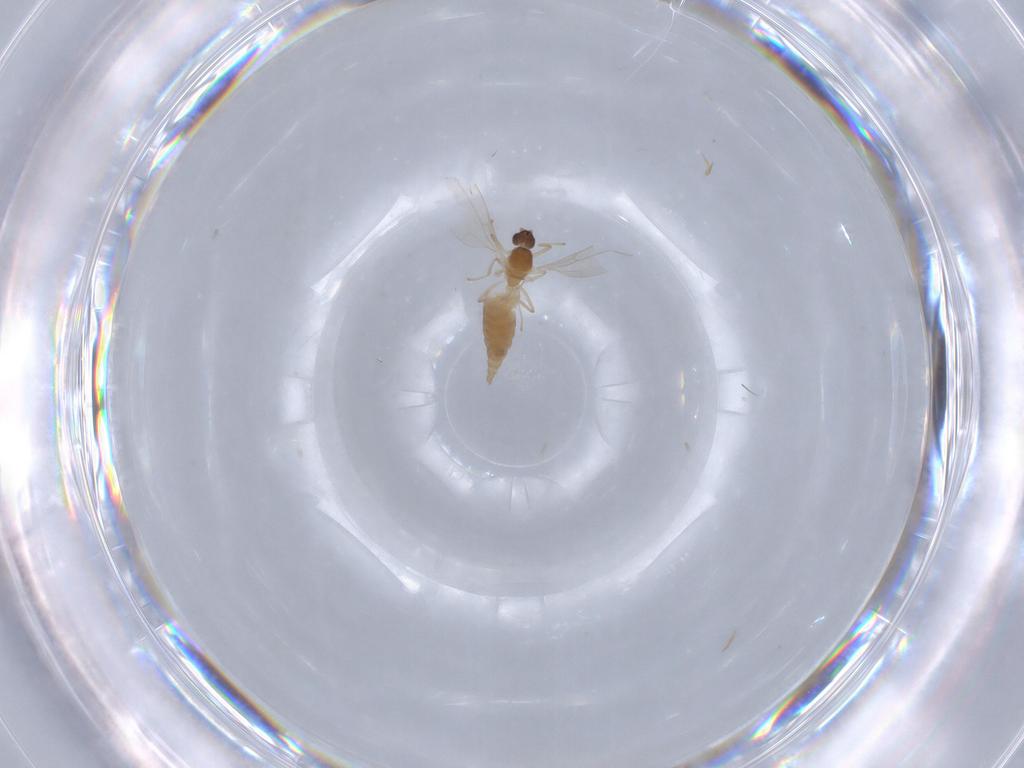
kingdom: Animalia
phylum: Arthropoda
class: Insecta
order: Diptera
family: Cecidomyiidae
